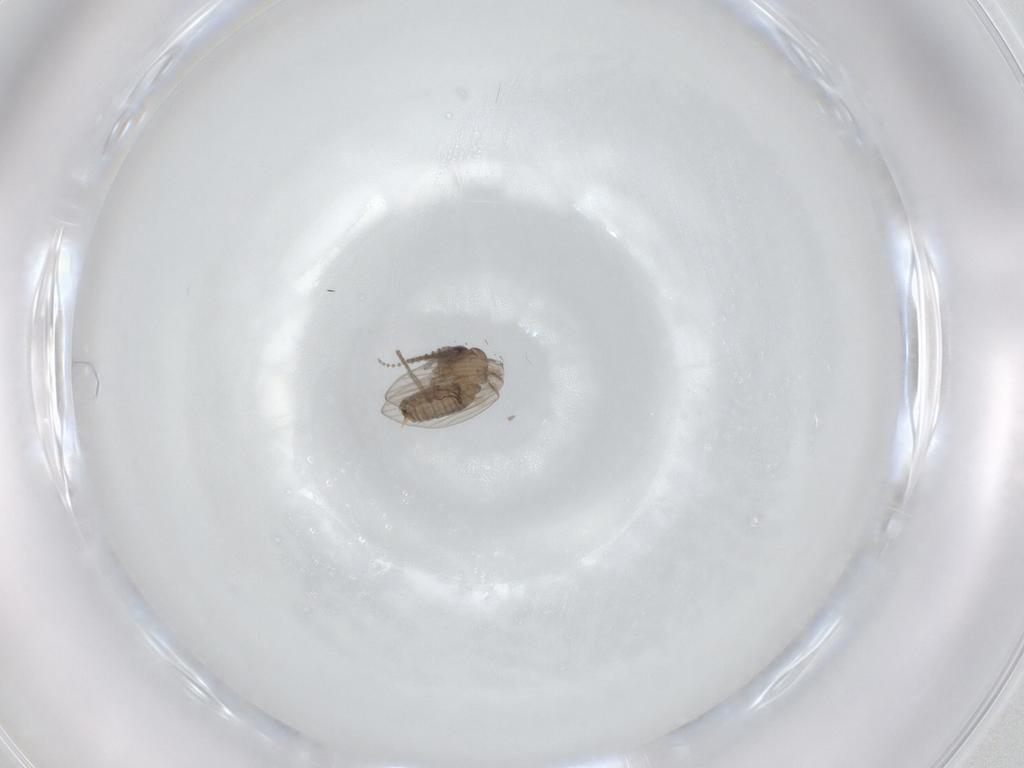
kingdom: Animalia
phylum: Arthropoda
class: Insecta
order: Diptera
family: Psychodidae
